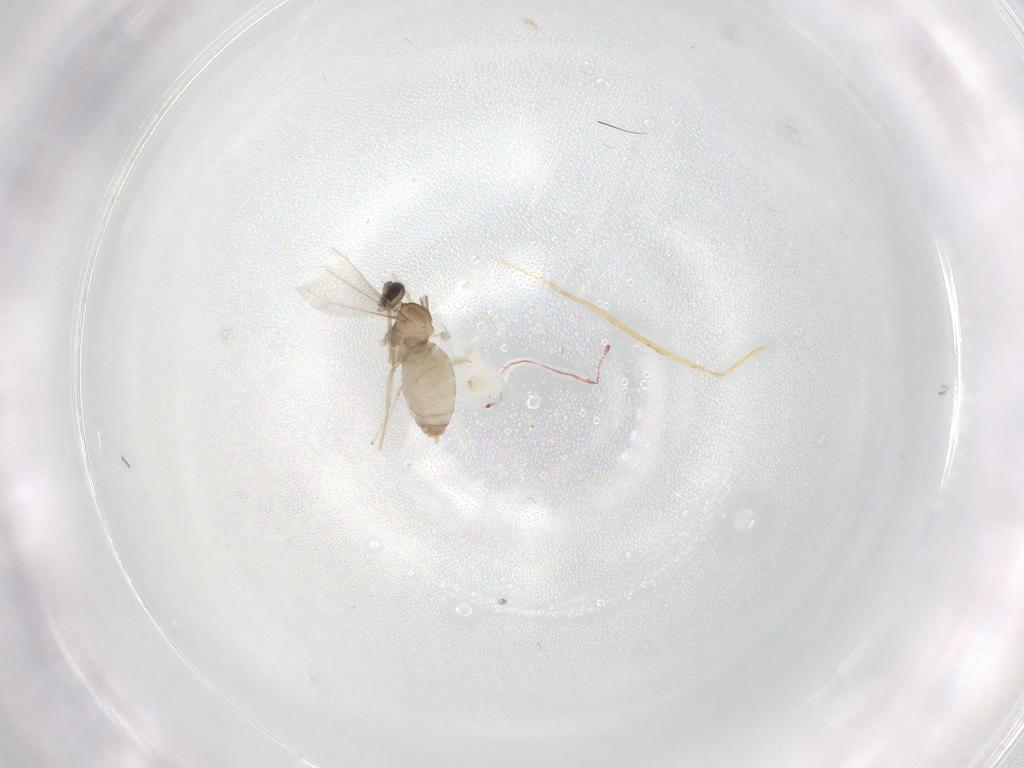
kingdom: Animalia
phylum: Arthropoda
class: Insecta
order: Diptera
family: Cecidomyiidae
